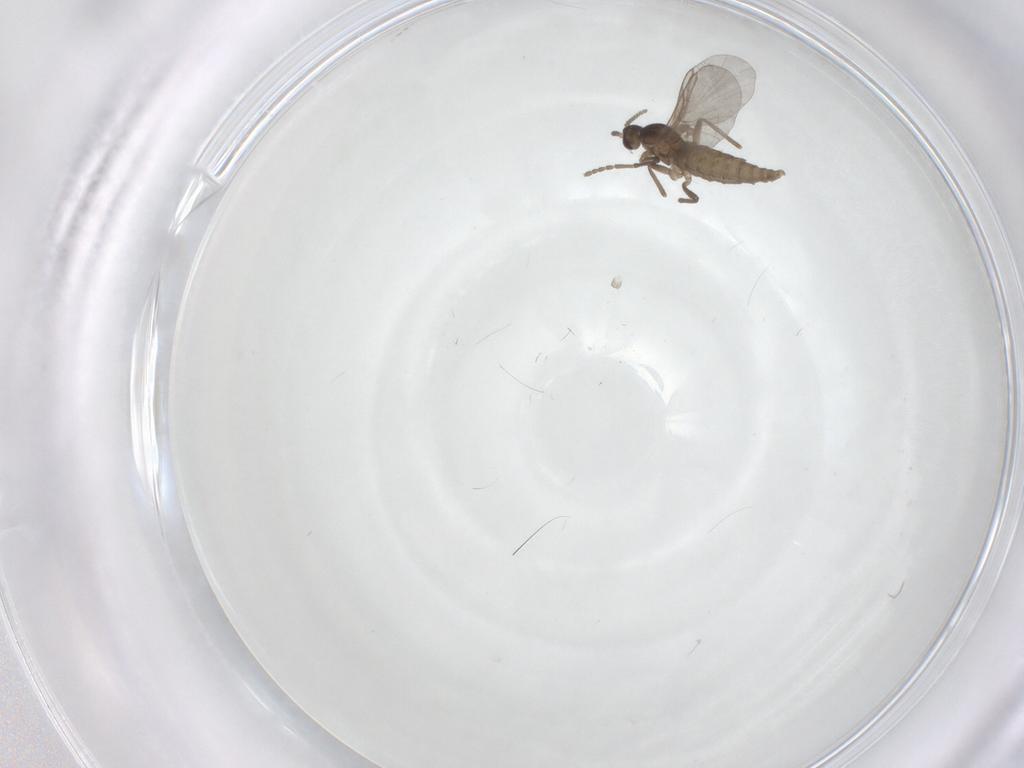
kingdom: Animalia
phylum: Arthropoda
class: Insecta
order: Diptera
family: Cecidomyiidae
